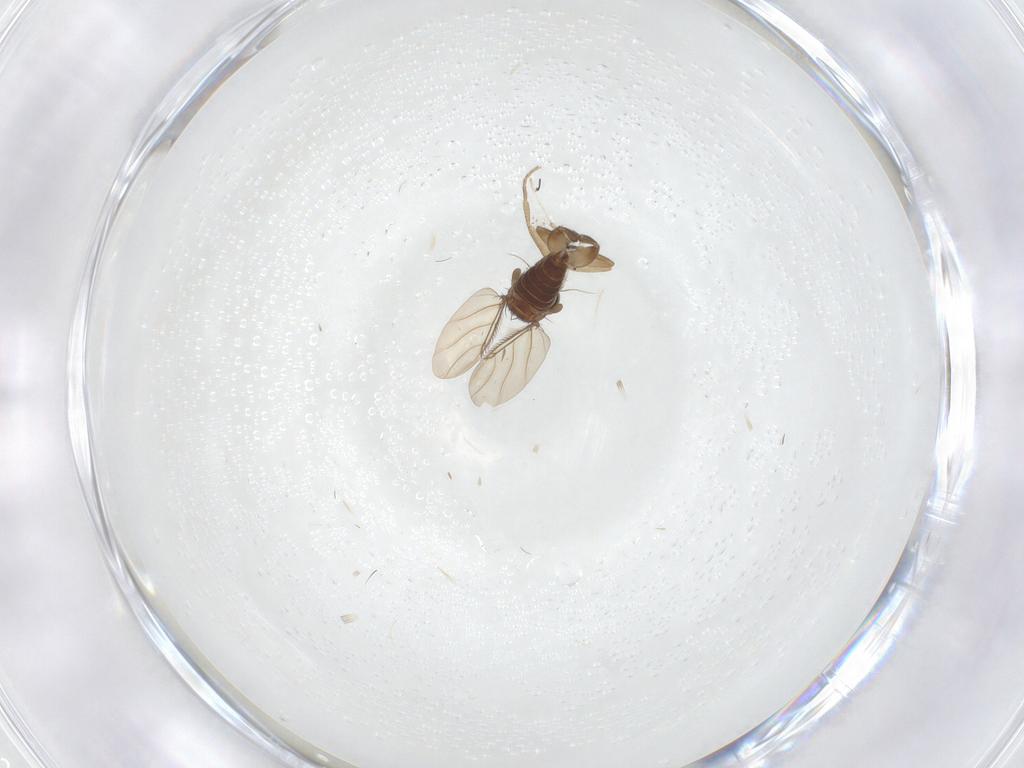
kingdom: Animalia
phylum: Arthropoda
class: Insecta
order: Diptera
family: Phoridae
